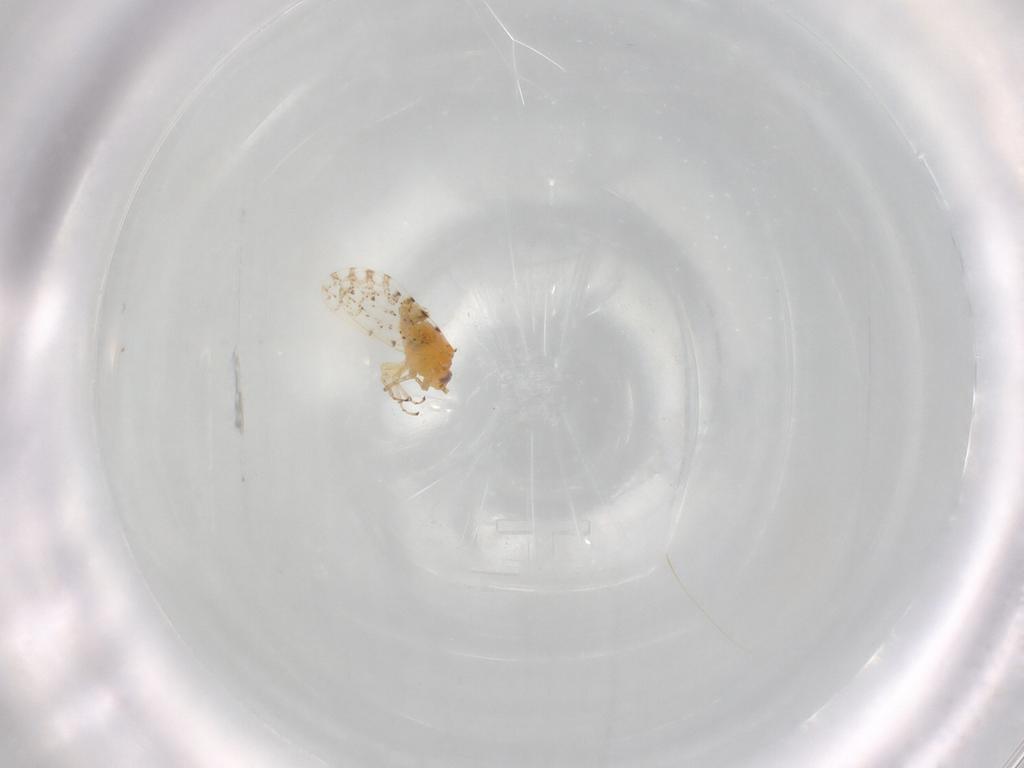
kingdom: Animalia
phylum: Arthropoda
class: Insecta
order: Hemiptera
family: Psylloidea_incertae_sedis
